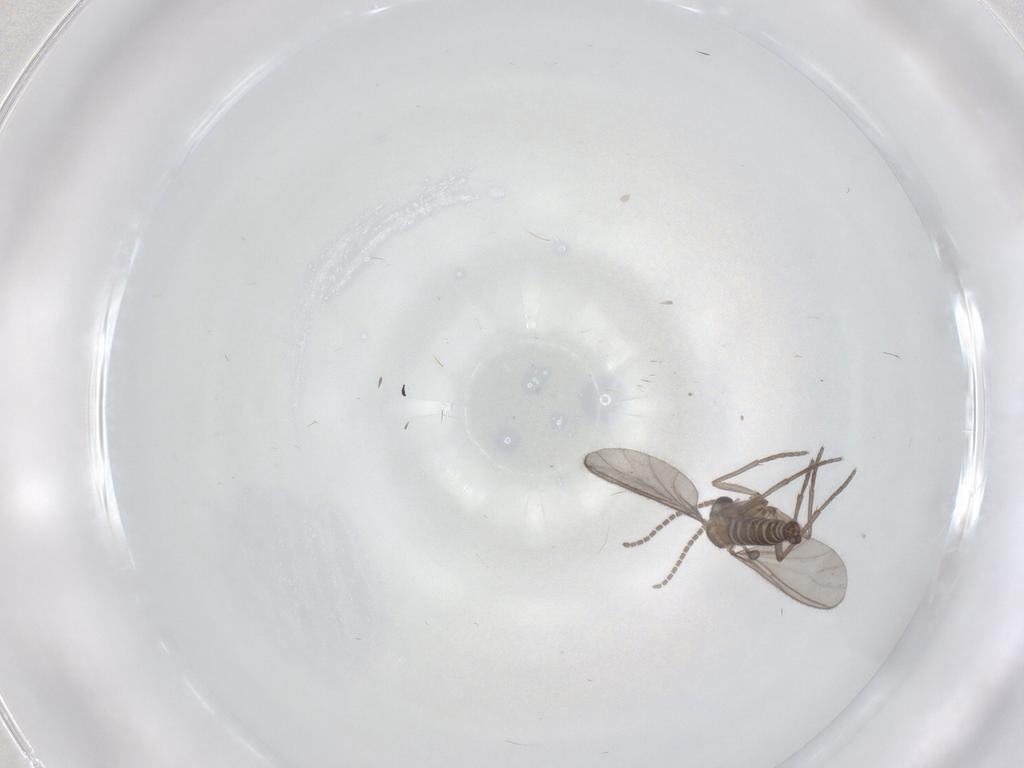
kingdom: Animalia
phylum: Arthropoda
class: Insecta
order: Diptera
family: Sciaridae
